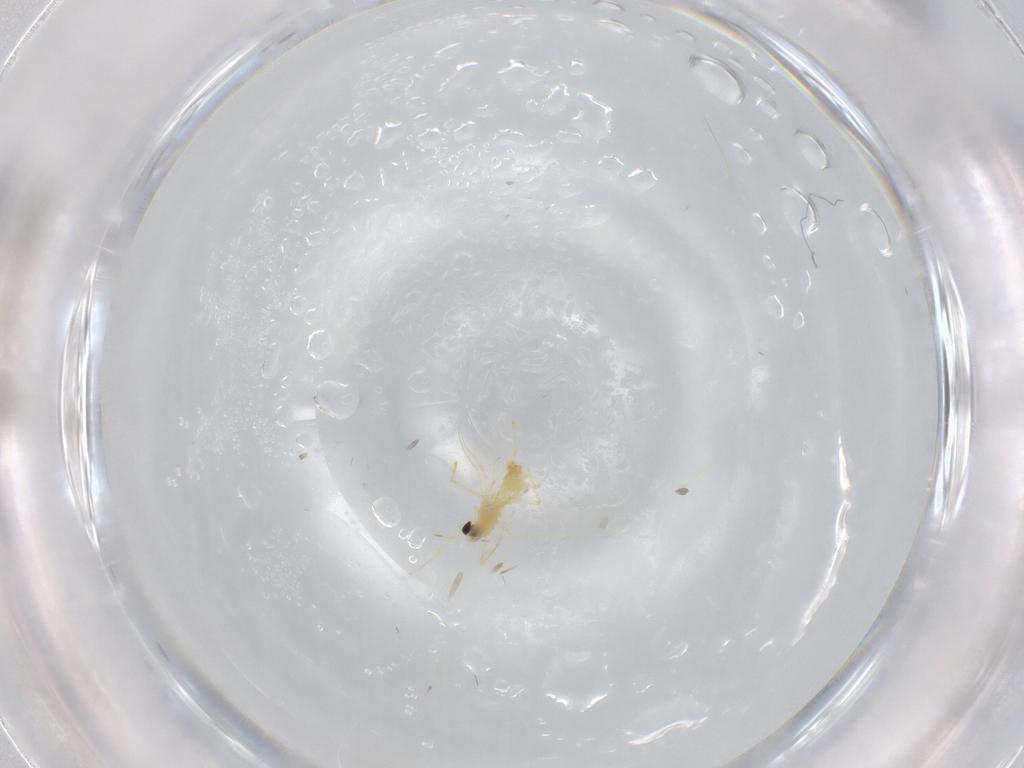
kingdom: Animalia
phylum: Arthropoda
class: Insecta
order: Diptera
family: Chironomidae
